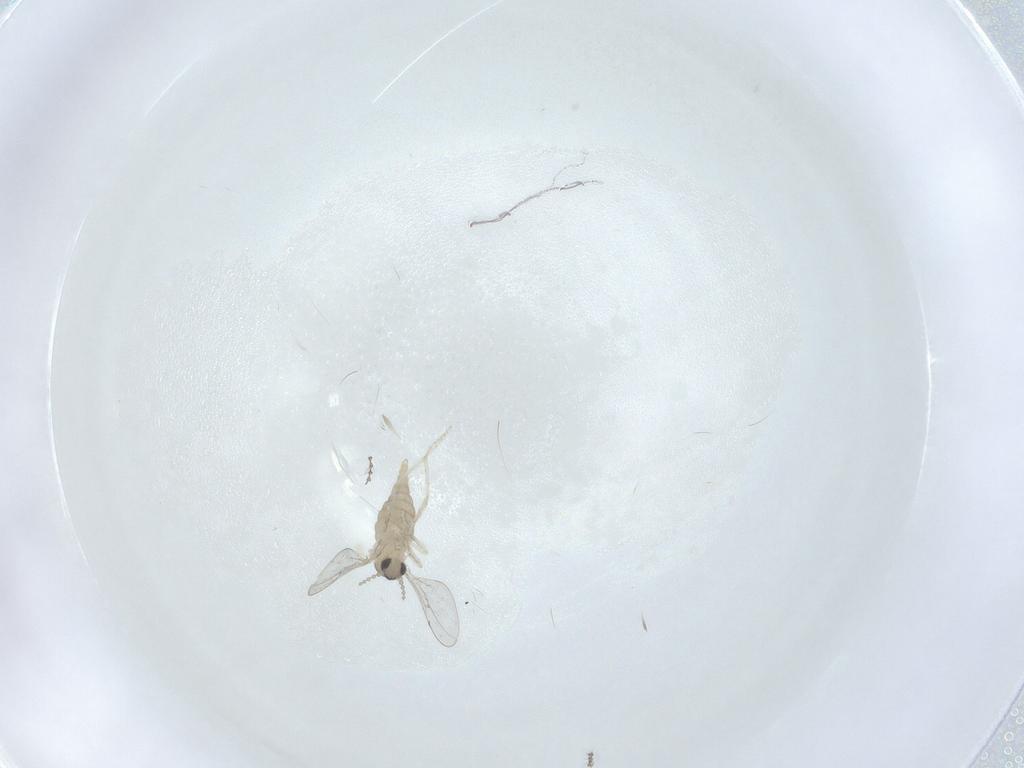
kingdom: Animalia
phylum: Arthropoda
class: Insecta
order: Diptera
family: Cecidomyiidae
